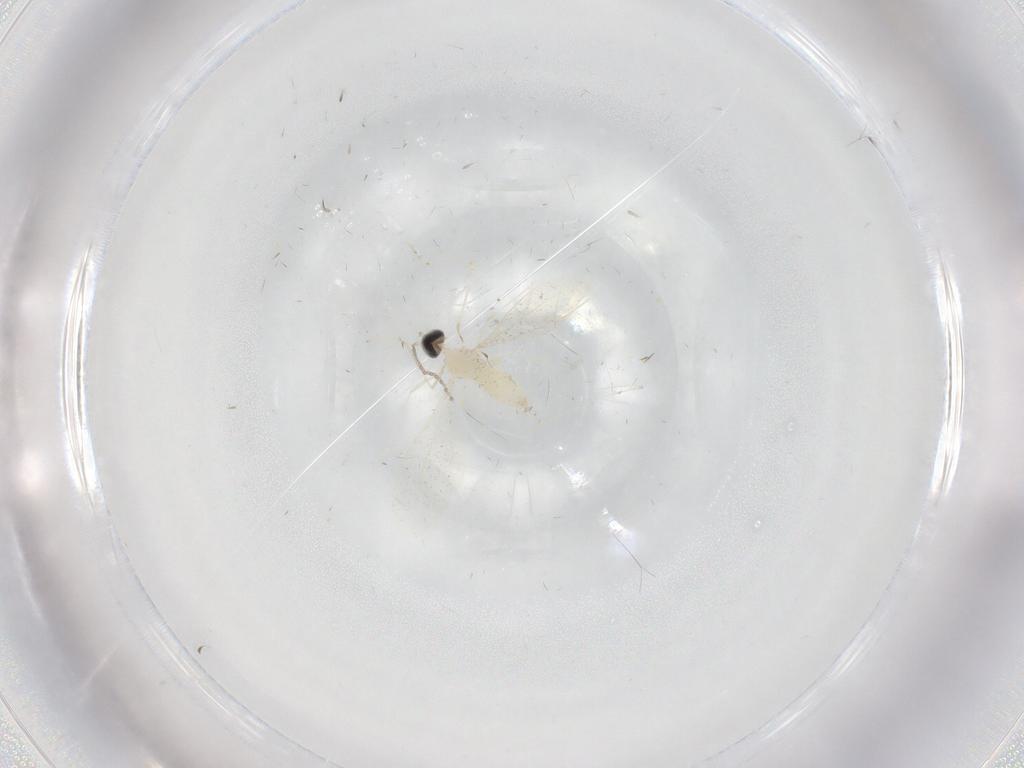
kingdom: Animalia
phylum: Arthropoda
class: Insecta
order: Diptera
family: Cecidomyiidae
